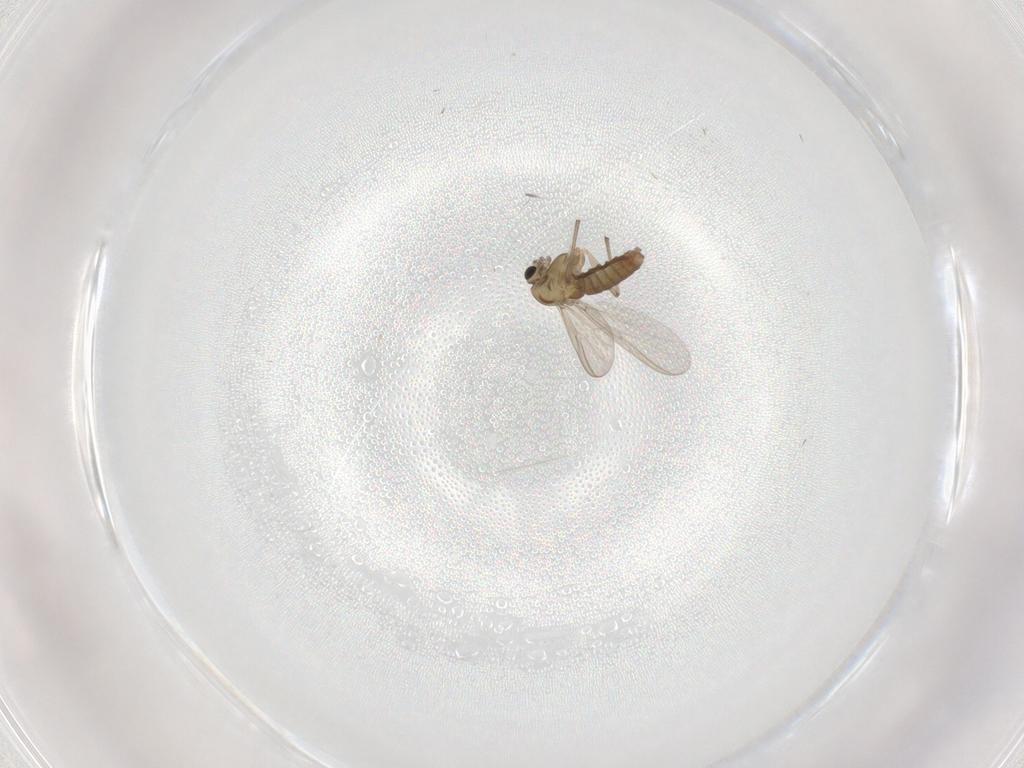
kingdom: Animalia
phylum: Arthropoda
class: Insecta
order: Diptera
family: Chironomidae
